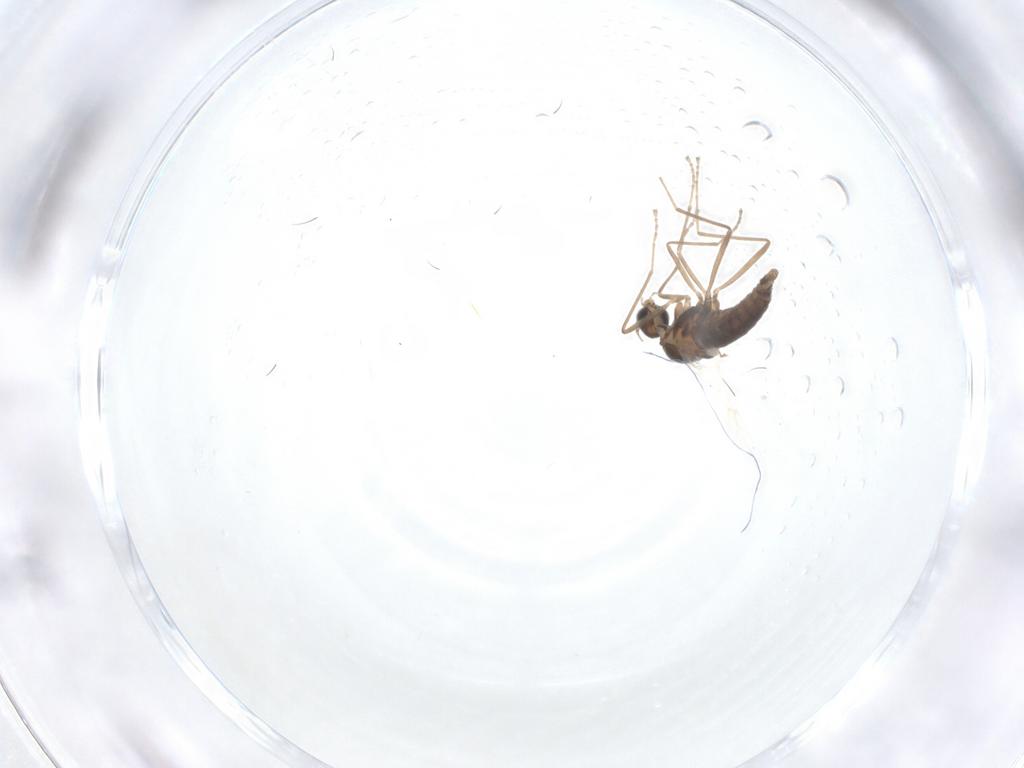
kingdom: Animalia
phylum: Arthropoda
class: Insecta
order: Diptera
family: Cecidomyiidae
